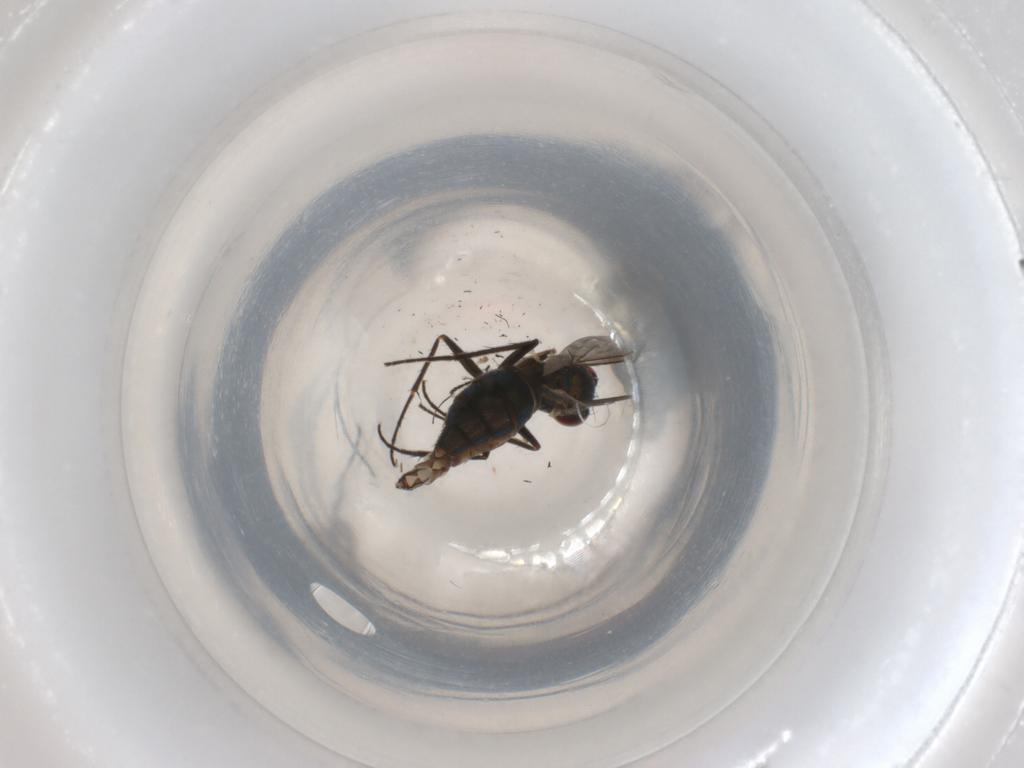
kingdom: Animalia
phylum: Arthropoda
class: Insecta
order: Diptera
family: Dolichopodidae
